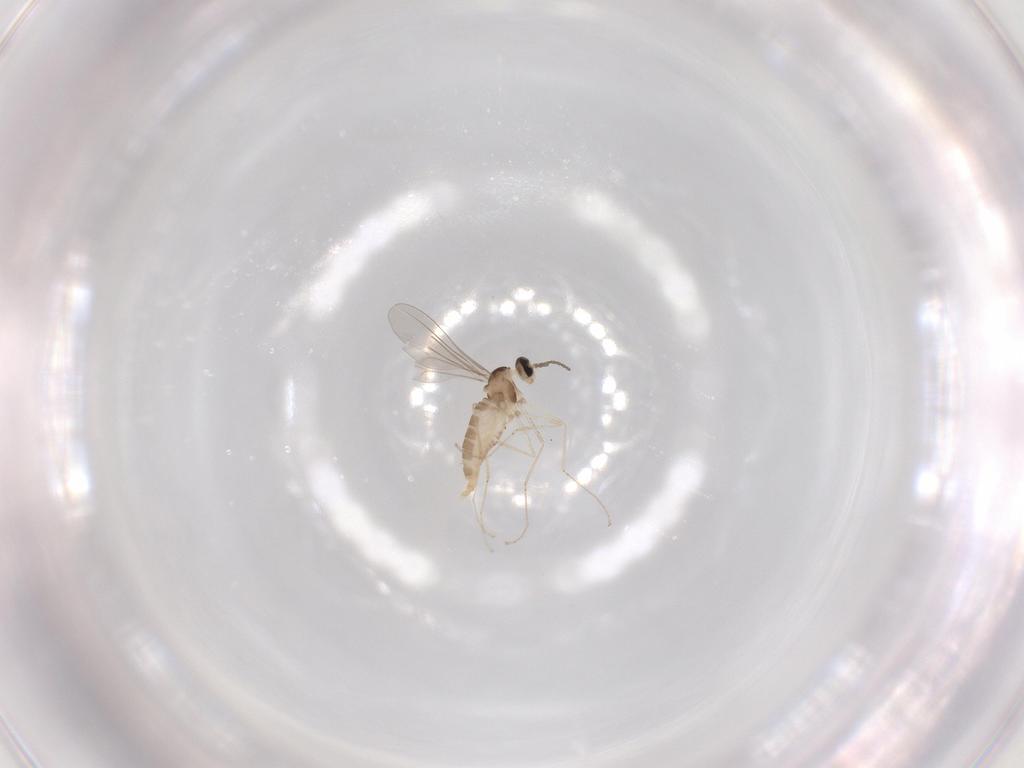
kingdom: Animalia
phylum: Arthropoda
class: Insecta
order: Diptera
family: Cecidomyiidae
